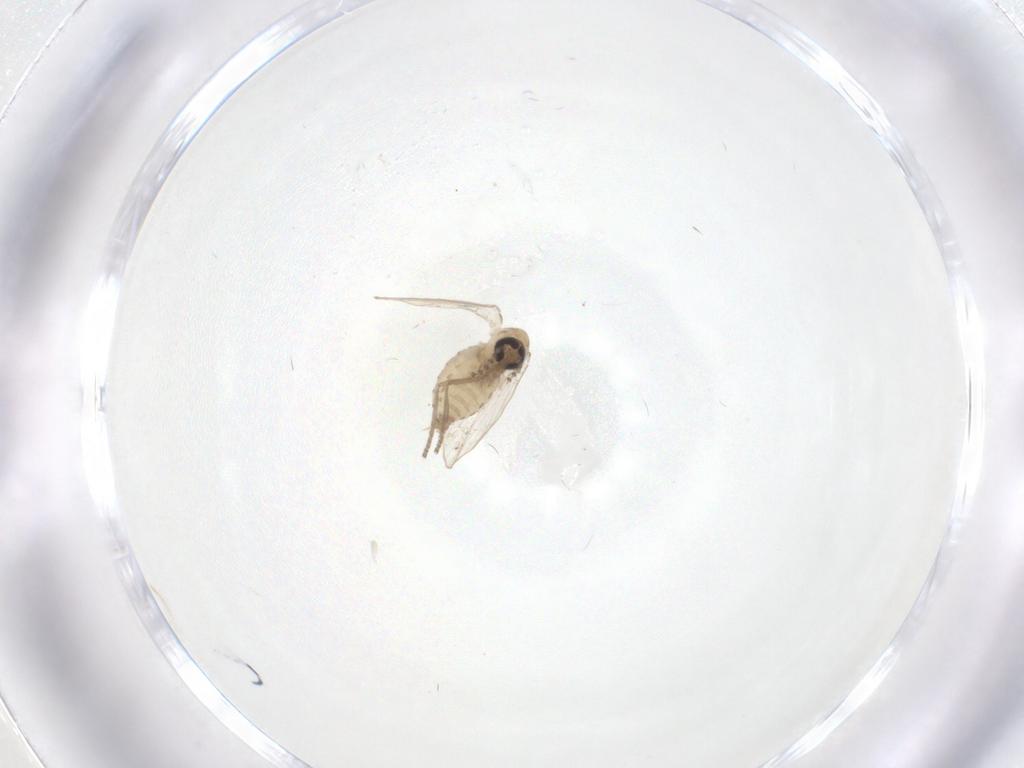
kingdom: Animalia
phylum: Arthropoda
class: Insecta
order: Diptera
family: Psychodidae
